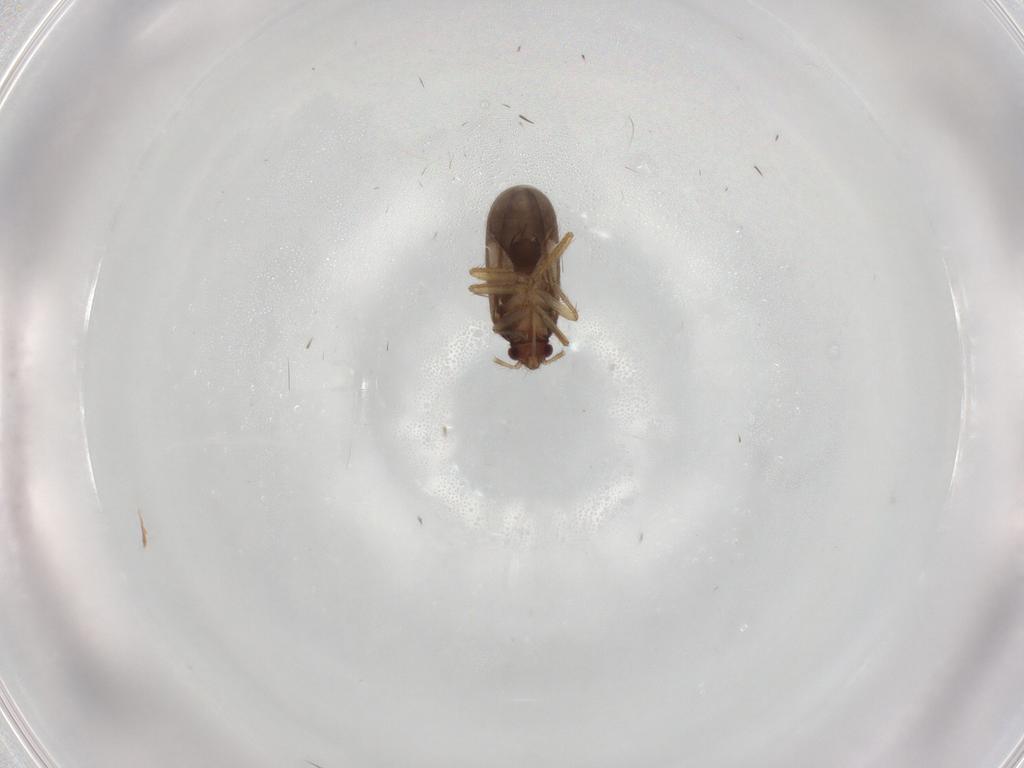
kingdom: Animalia
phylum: Arthropoda
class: Insecta
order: Hemiptera
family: Ceratocombidae
